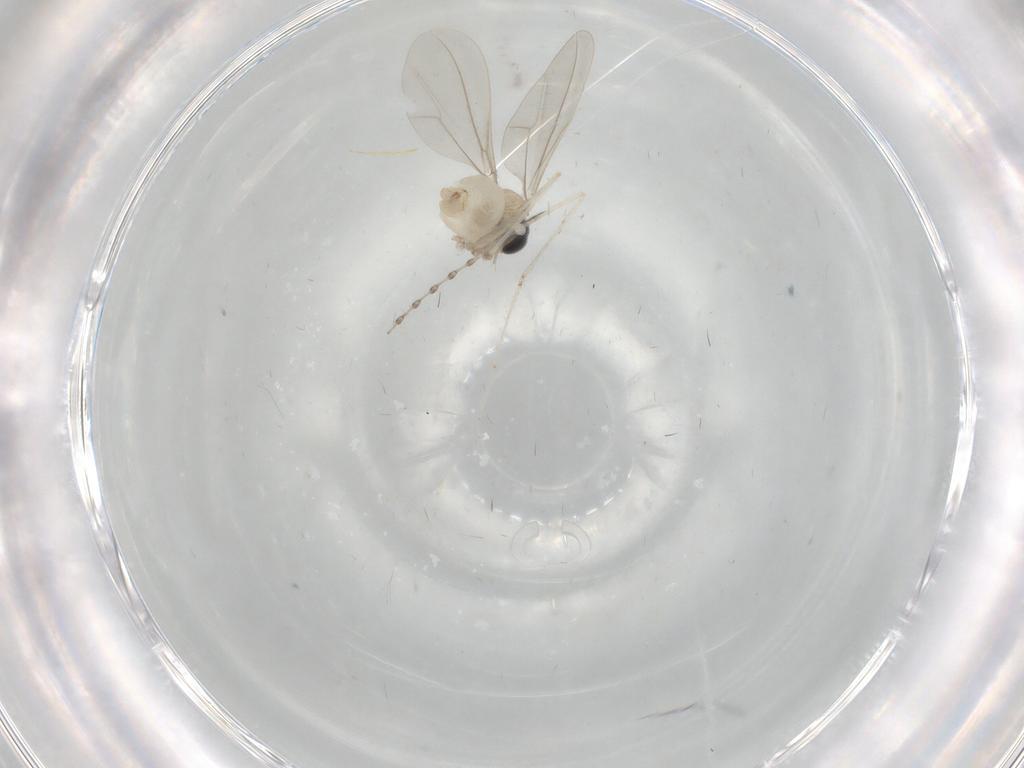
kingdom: Animalia
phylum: Arthropoda
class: Insecta
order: Diptera
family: Cecidomyiidae
